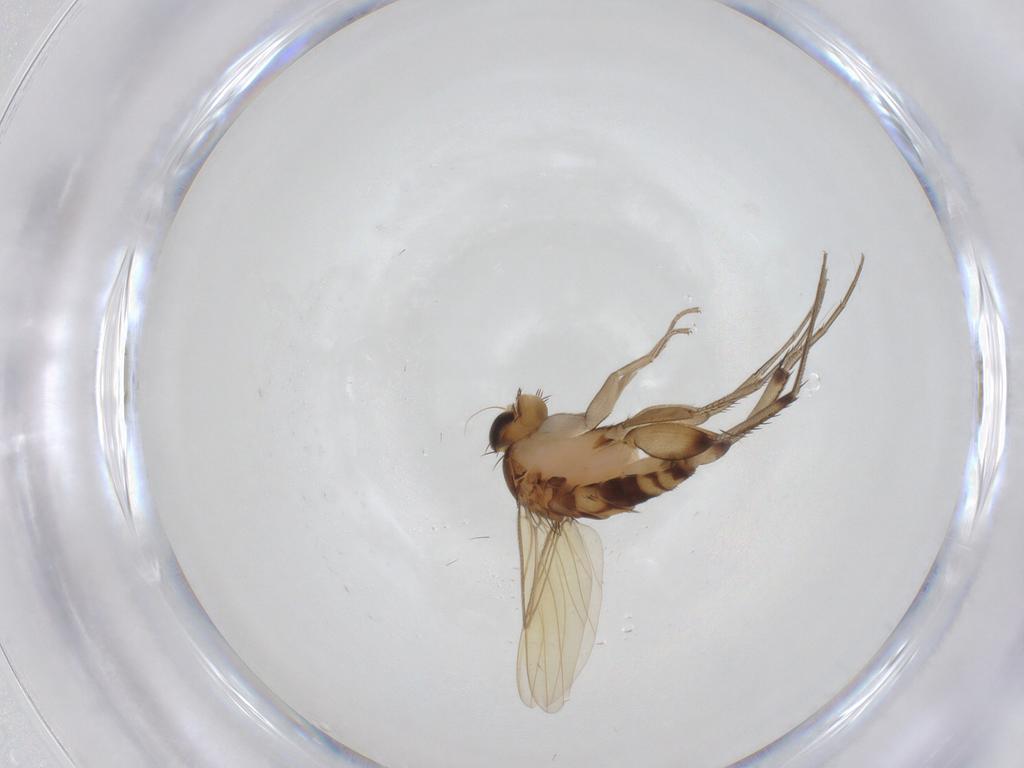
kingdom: Animalia
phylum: Arthropoda
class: Insecta
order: Diptera
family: Phoridae
